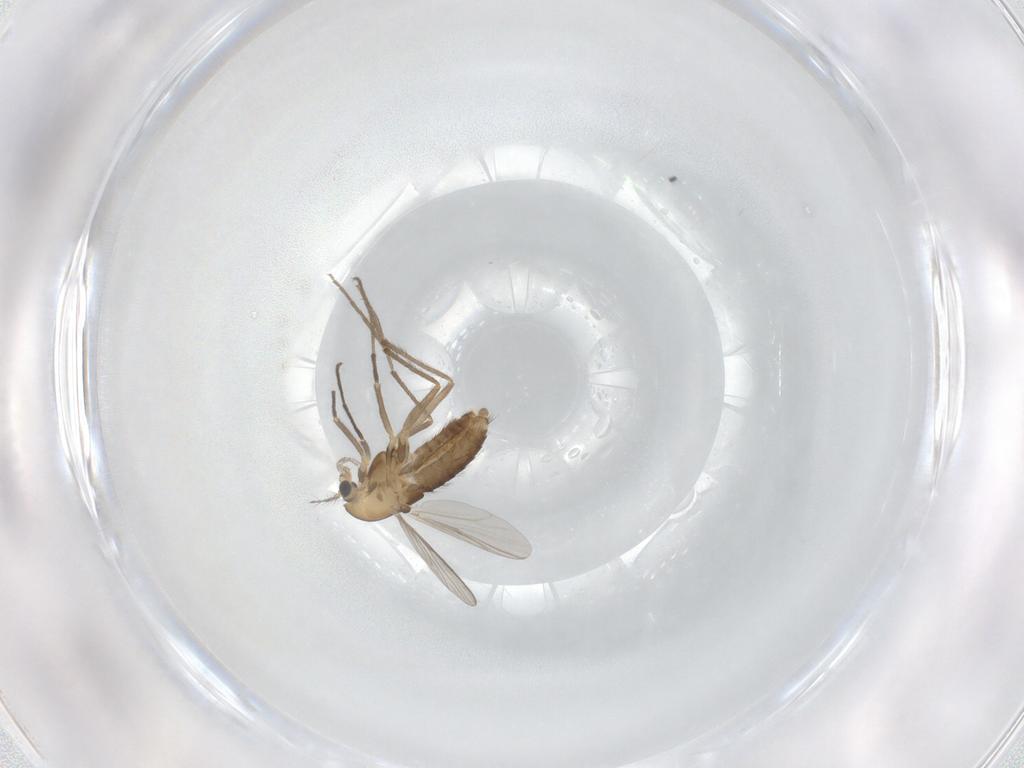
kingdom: Animalia
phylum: Arthropoda
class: Insecta
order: Diptera
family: Chironomidae
